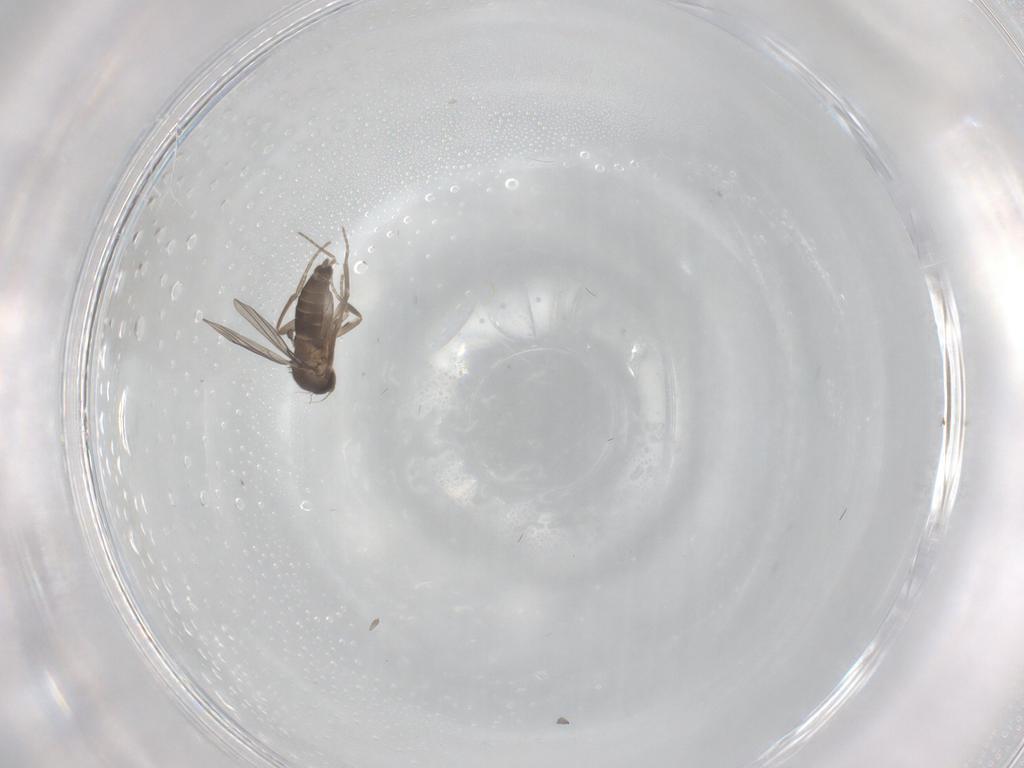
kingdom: Animalia
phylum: Arthropoda
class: Insecta
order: Diptera
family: Phoridae
